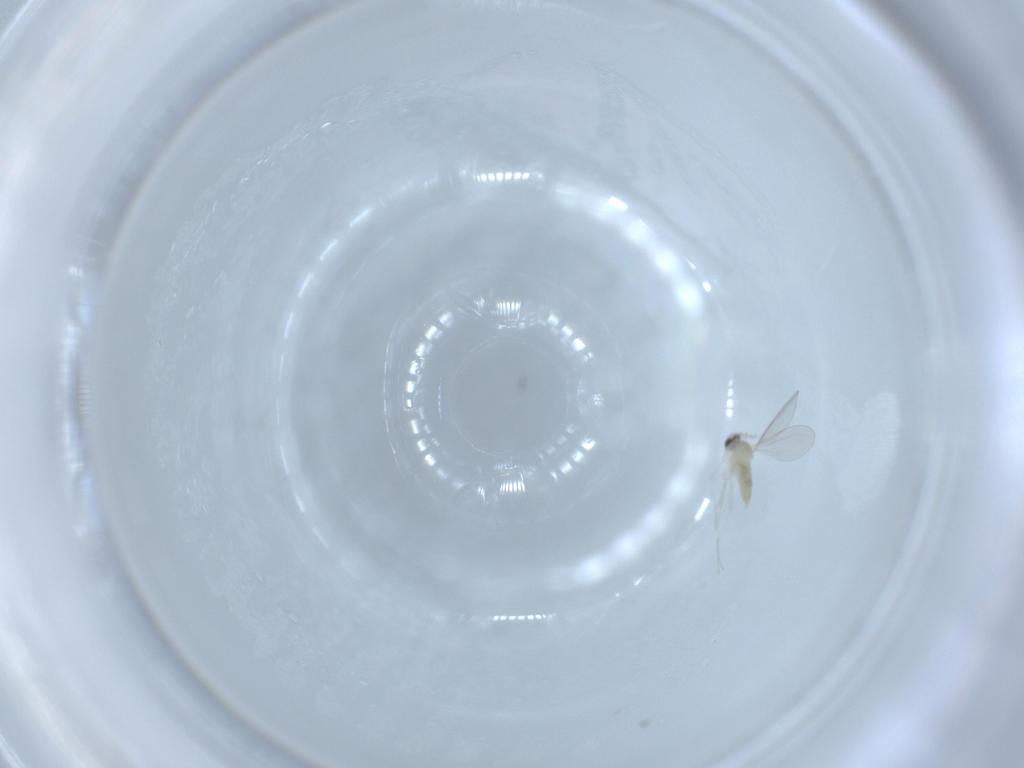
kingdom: Animalia
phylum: Arthropoda
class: Insecta
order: Diptera
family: Cecidomyiidae
